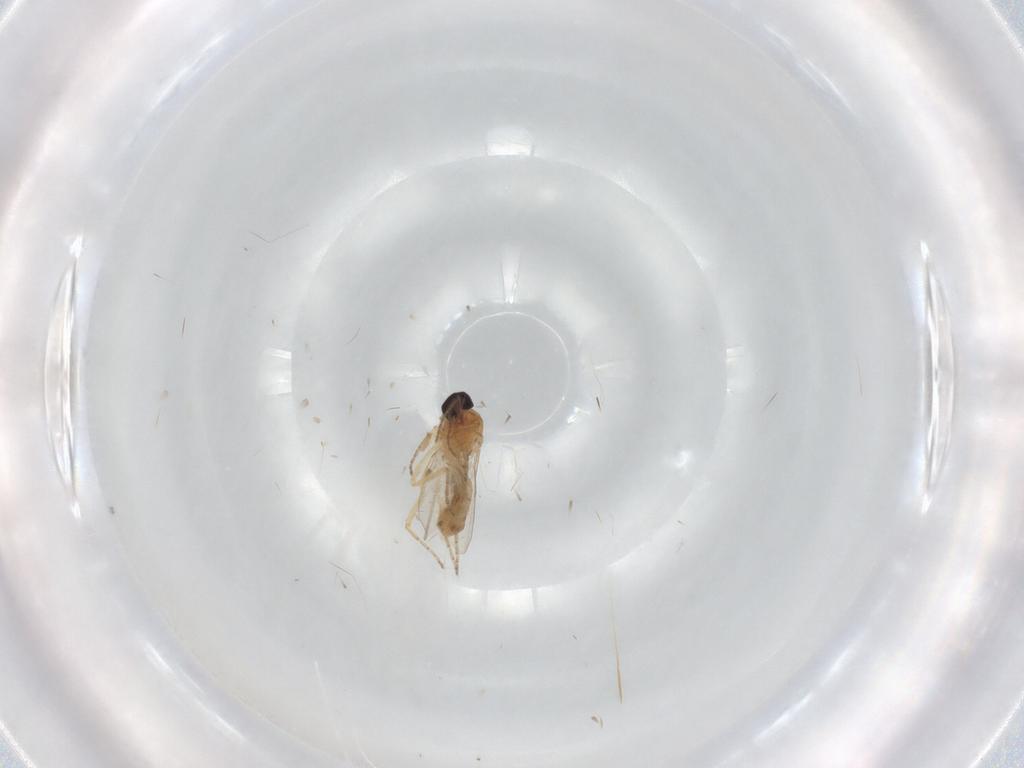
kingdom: Animalia
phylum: Arthropoda
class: Insecta
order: Diptera
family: Ceratopogonidae
